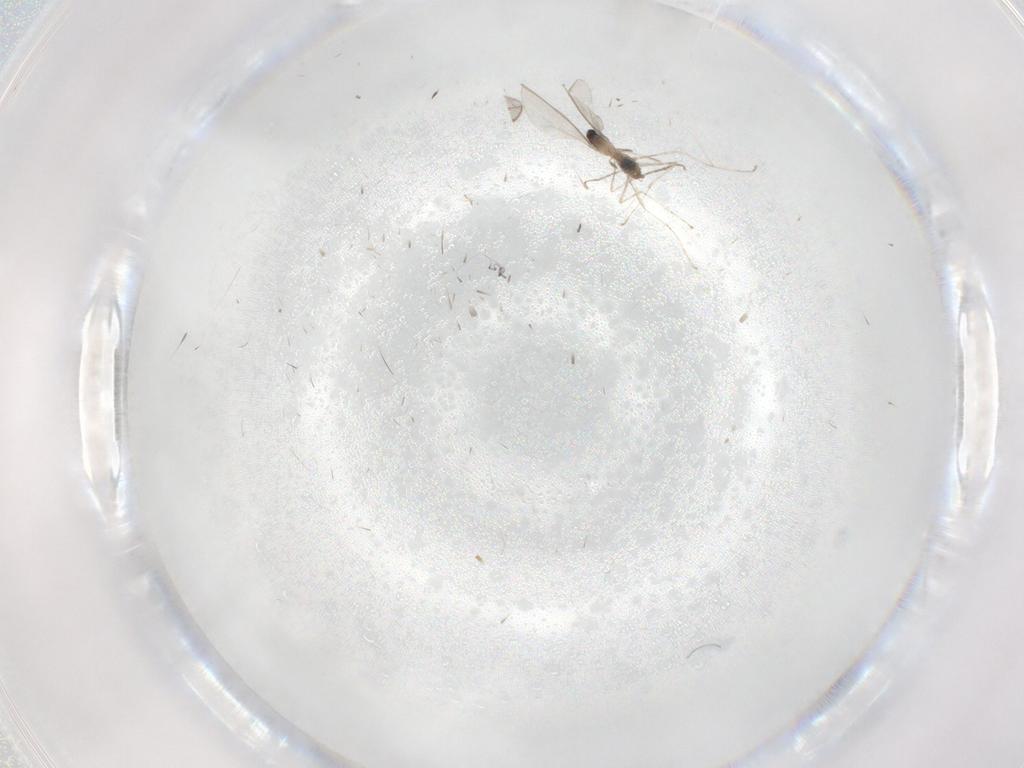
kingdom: Animalia
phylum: Arthropoda
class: Insecta
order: Diptera
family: Cecidomyiidae
